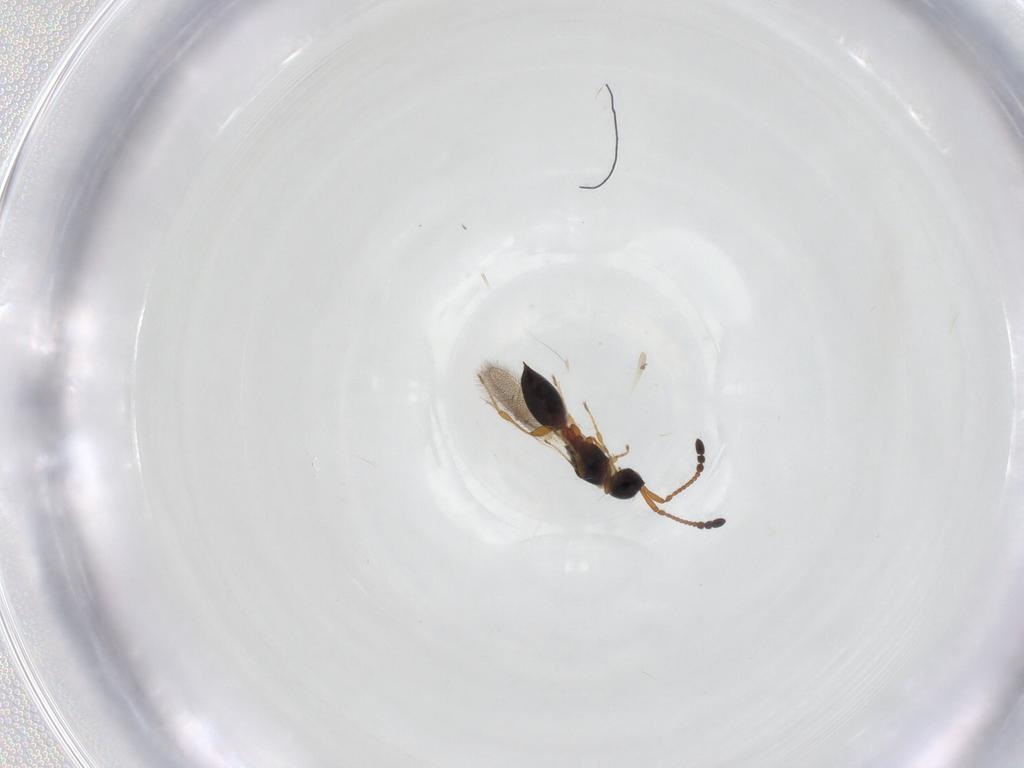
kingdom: Animalia
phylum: Arthropoda
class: Insecta
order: Hymenoptera
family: Diapriidae
